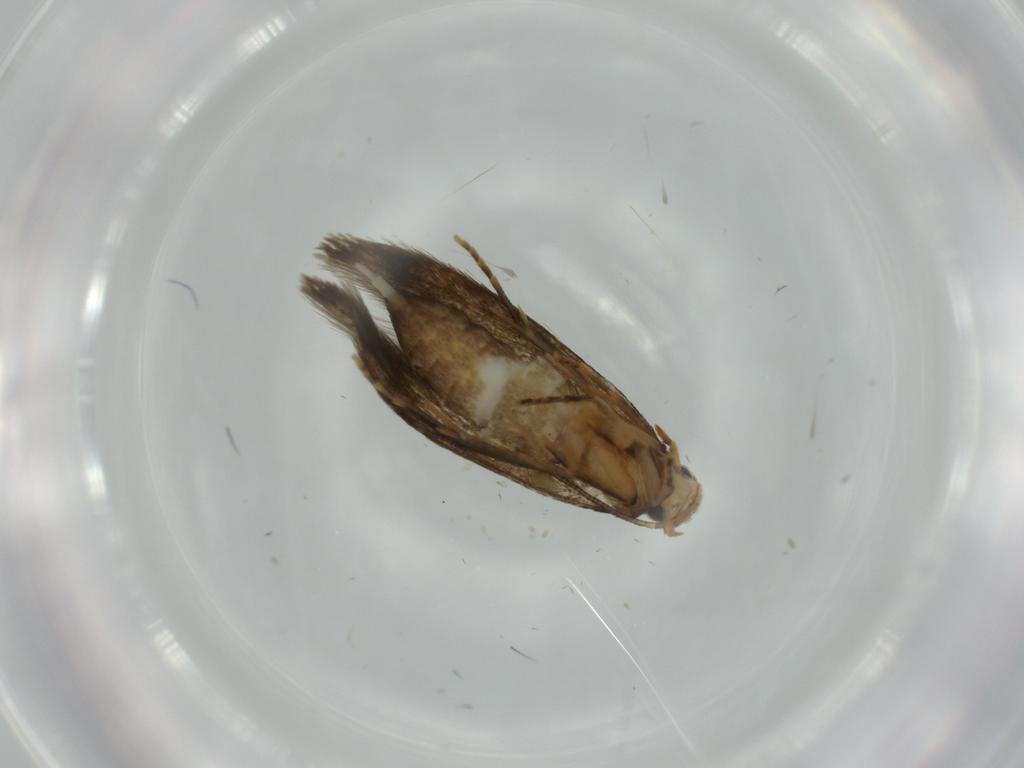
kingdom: Animalia
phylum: Arthropoda
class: Insecta
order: Lepidoptera
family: Tineidae
